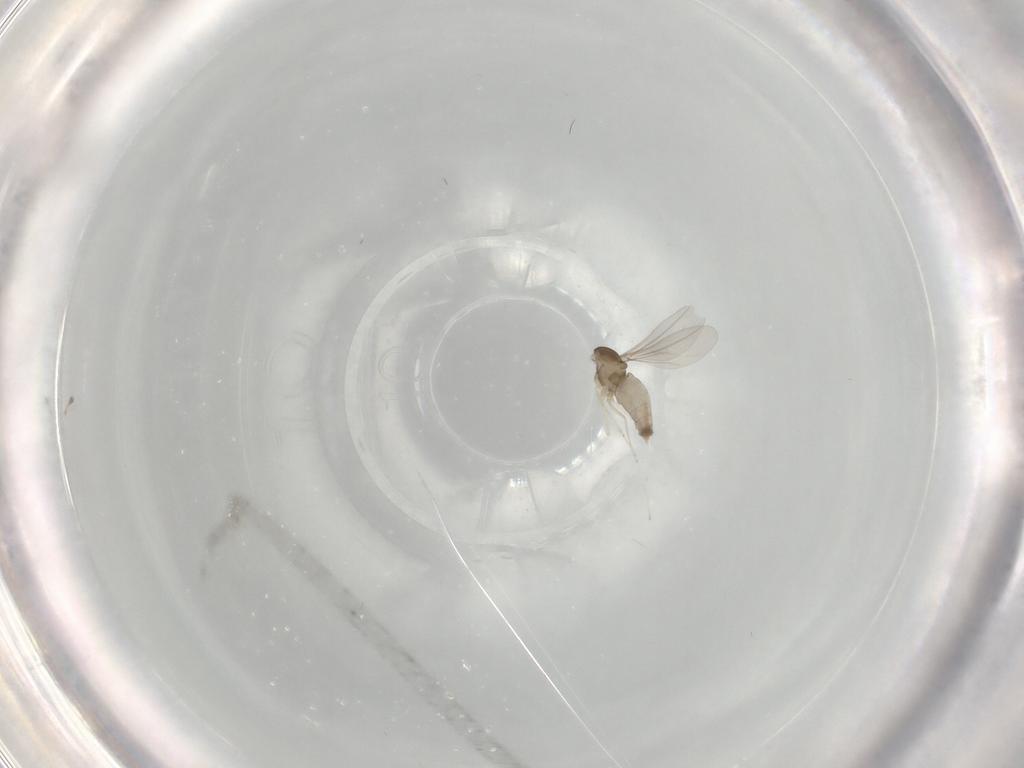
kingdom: Animalia
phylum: Arthropoda
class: Insecta
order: Diptera
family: Cecidomyiidae
